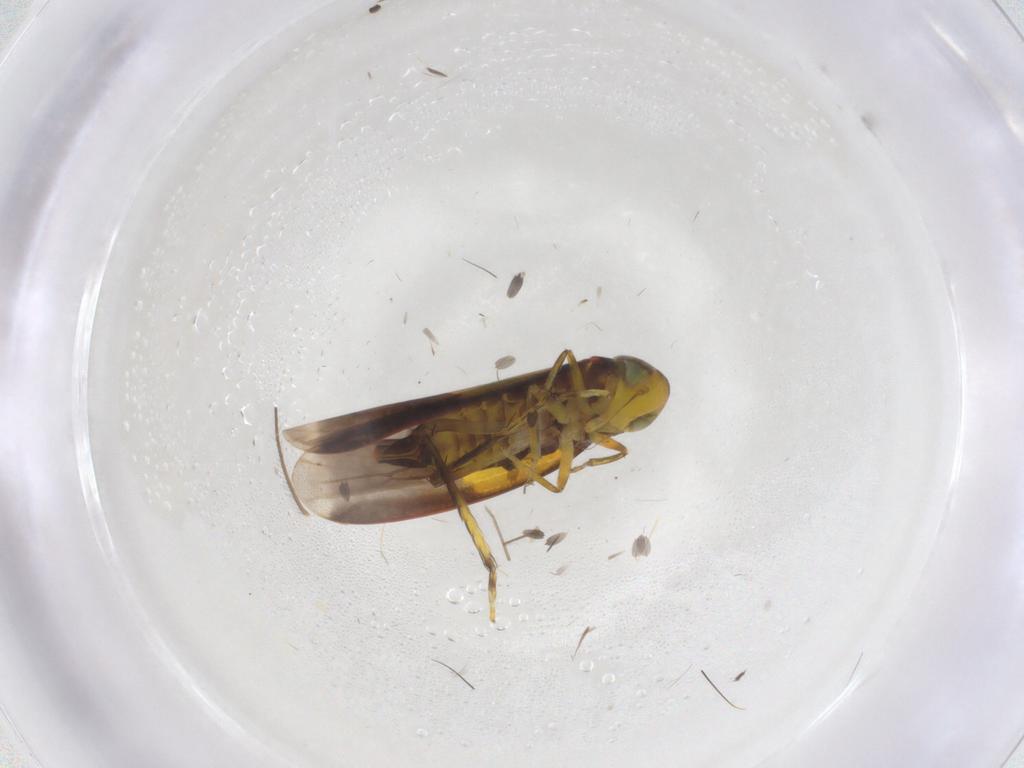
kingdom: Animalia
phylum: Arthropoda
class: Insecta
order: Hemiptera
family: Cicadellidae
